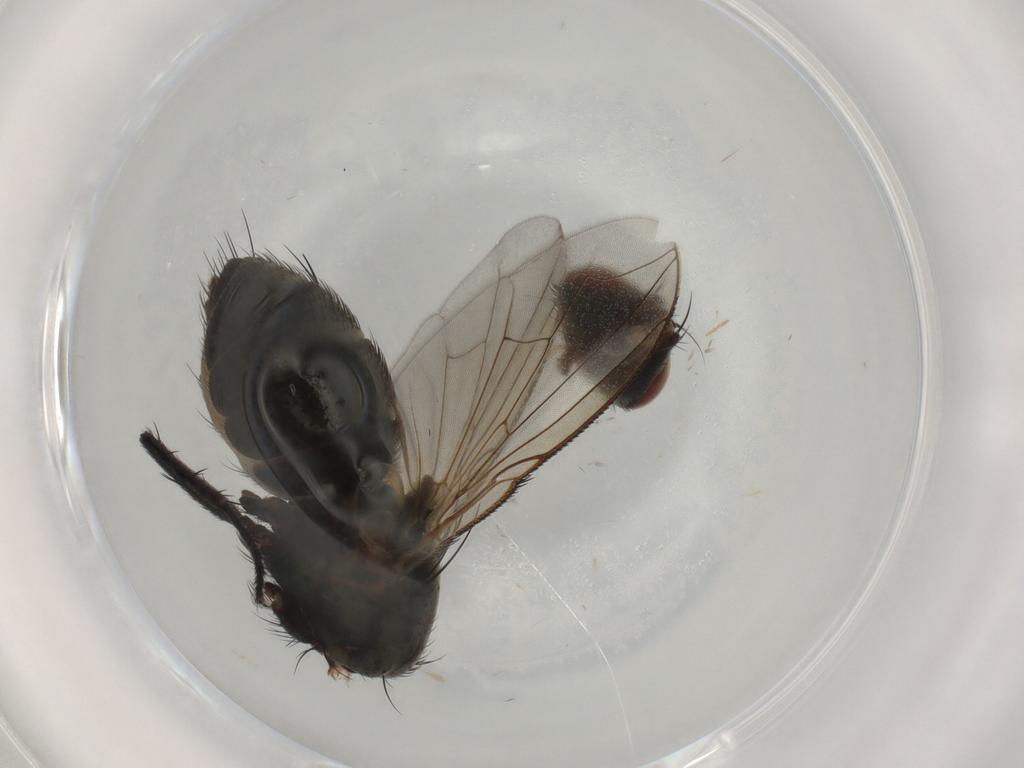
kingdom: Animalia
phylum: Arthropoda
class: Insecta
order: Diptera
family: Sarcophagidae
